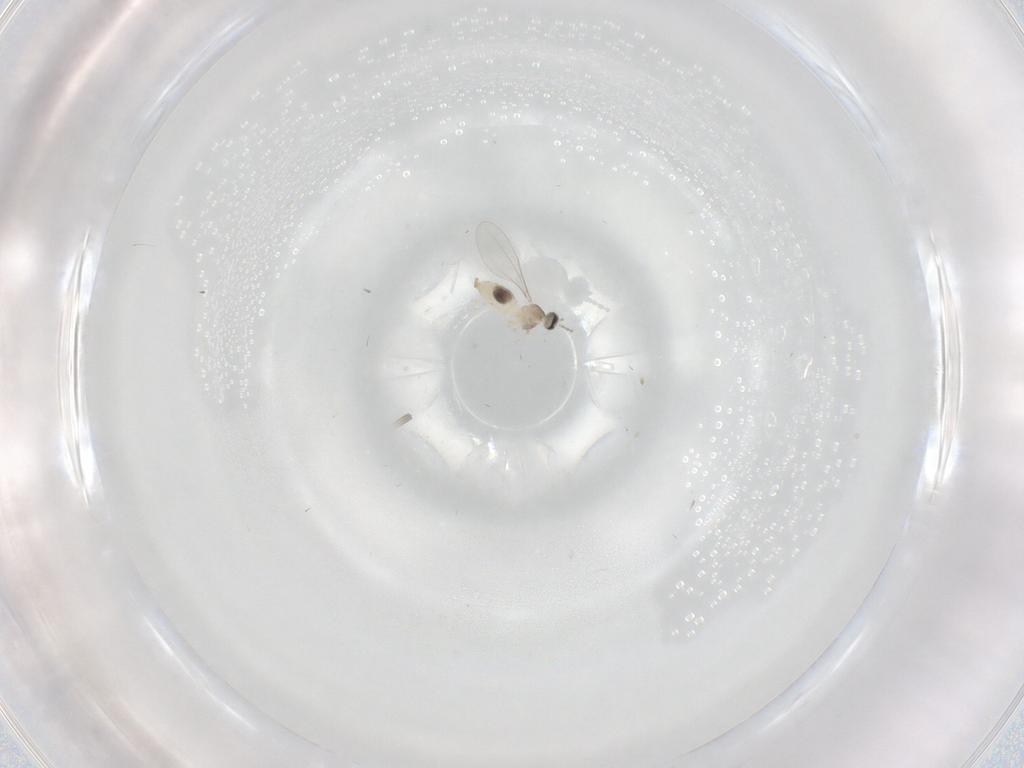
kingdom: Animalia
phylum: Arthropoda
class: Insecta
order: Diptera
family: Cecidomyiidae
